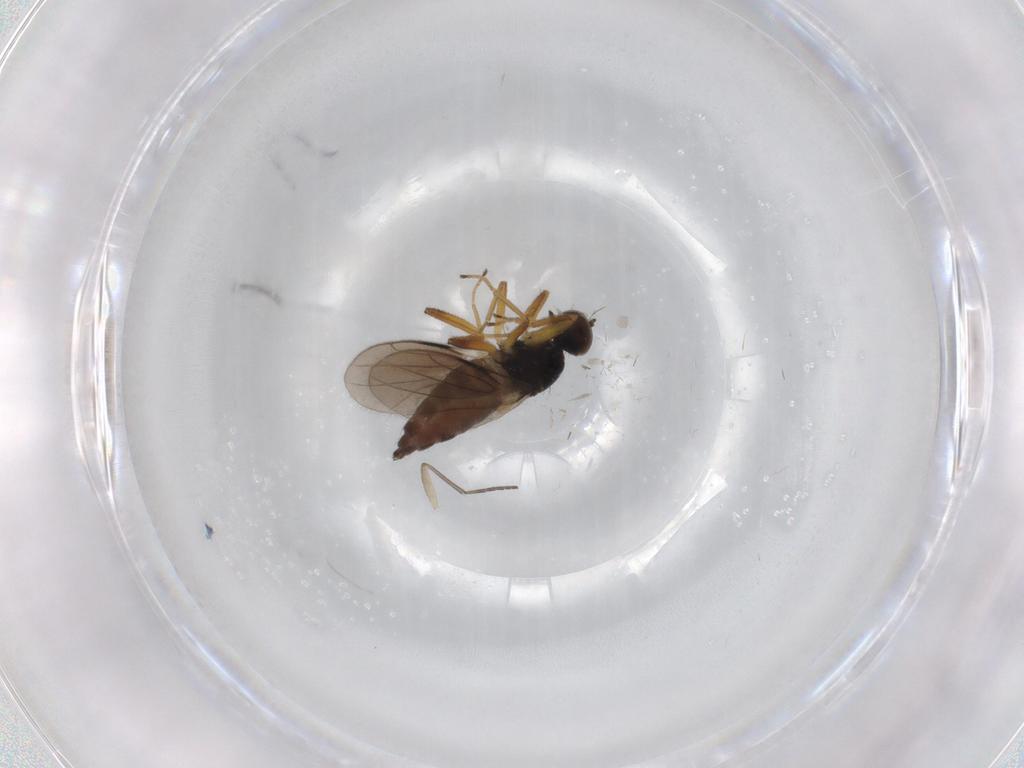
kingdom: Animalia
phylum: Arthropoda
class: Insecta
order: Diptera
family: Hybotidae
